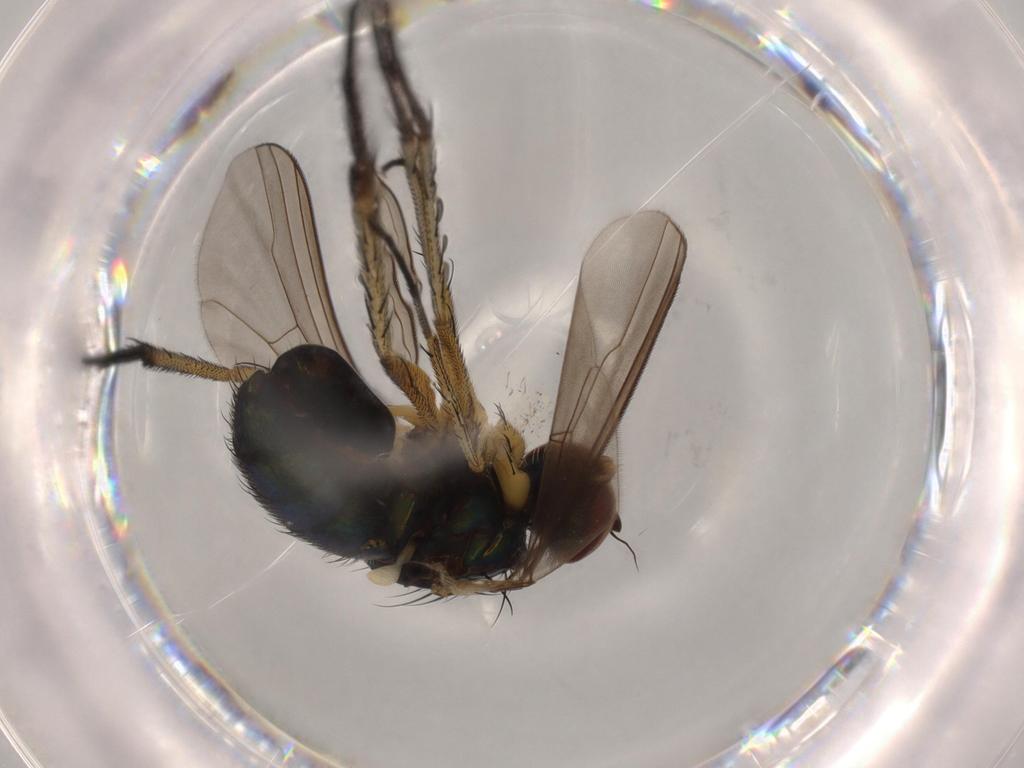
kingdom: Animalia
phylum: Arthropoda
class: Insecta
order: Diptera
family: Dolichopodidae
